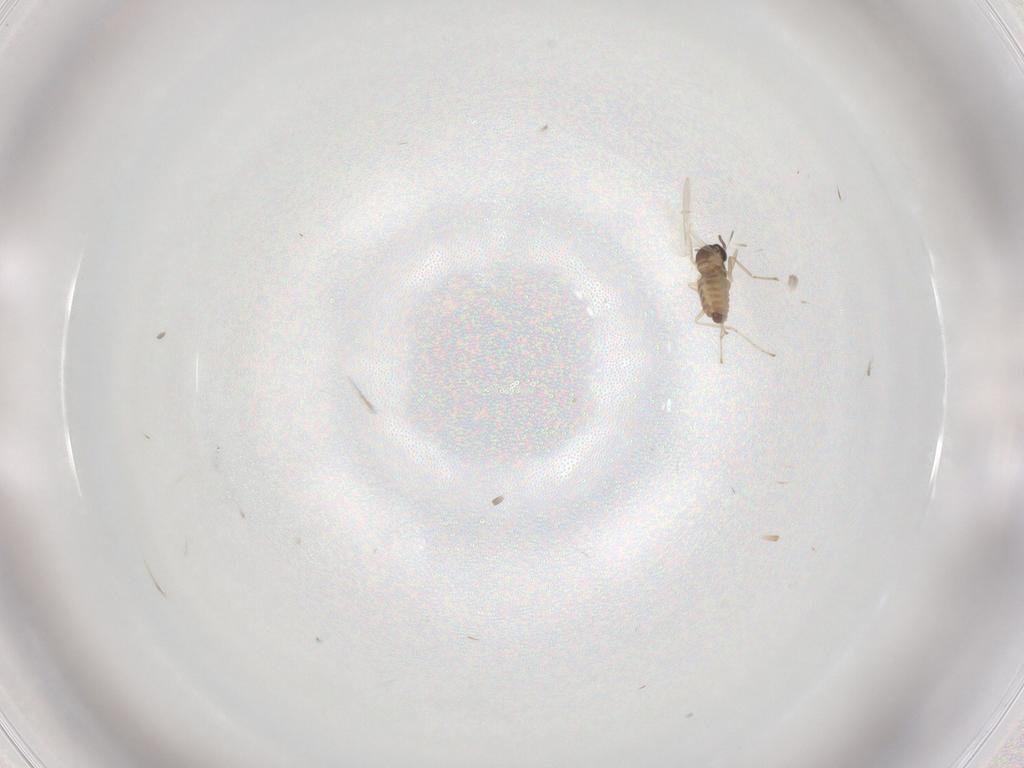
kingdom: Animalia
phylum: Arthropoda
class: Insecta
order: Diptera
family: Cecidomyiidae
